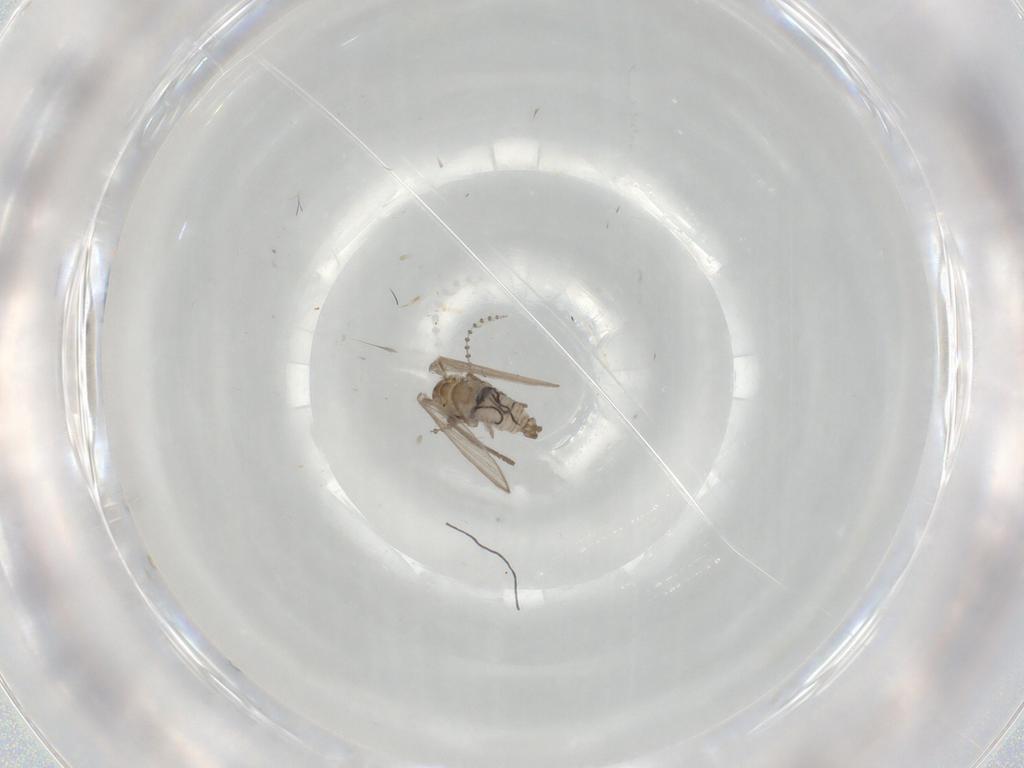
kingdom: Animalia
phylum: Arthropoda
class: Insecta
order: Diptera
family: Psychodidae
